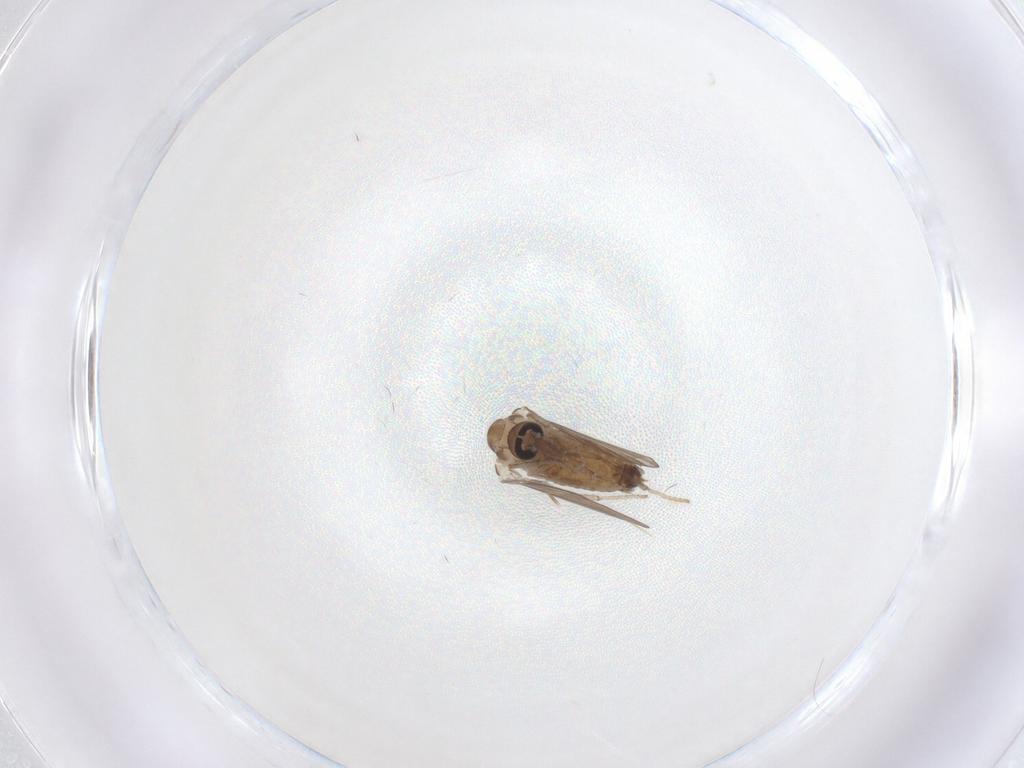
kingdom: Animalia
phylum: Arthropoda
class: Insecta
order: Diptera
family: Psychodidae
